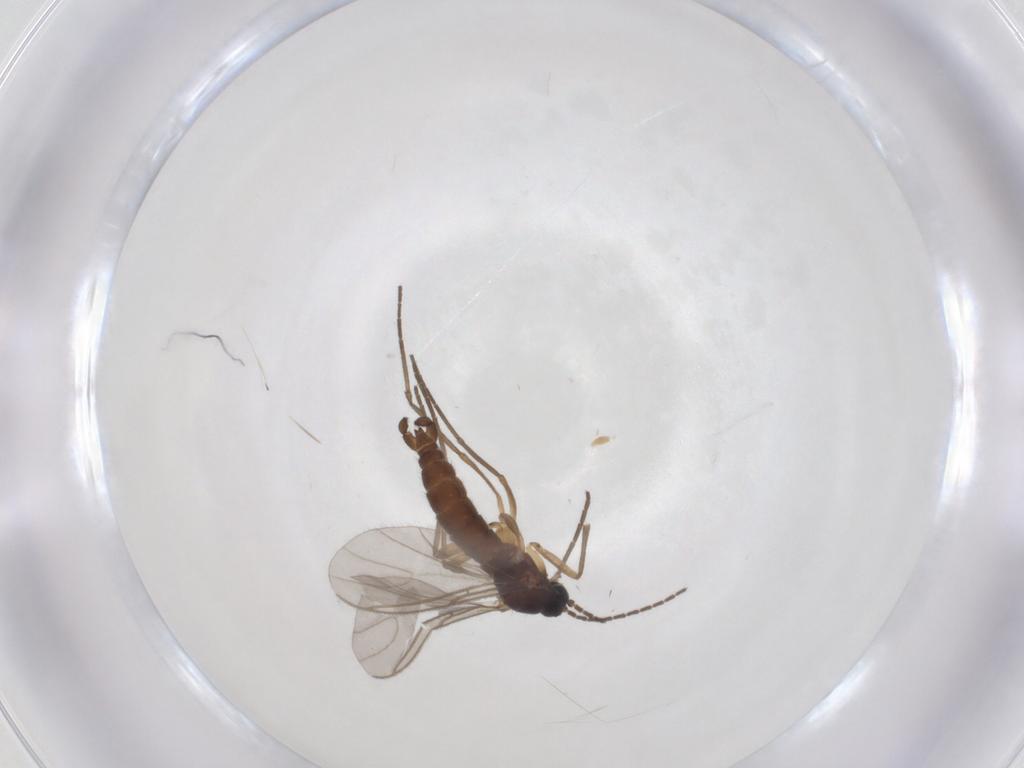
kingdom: Animalia
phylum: Arthropoda
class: Insecta
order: Diptera
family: Sciaridae
